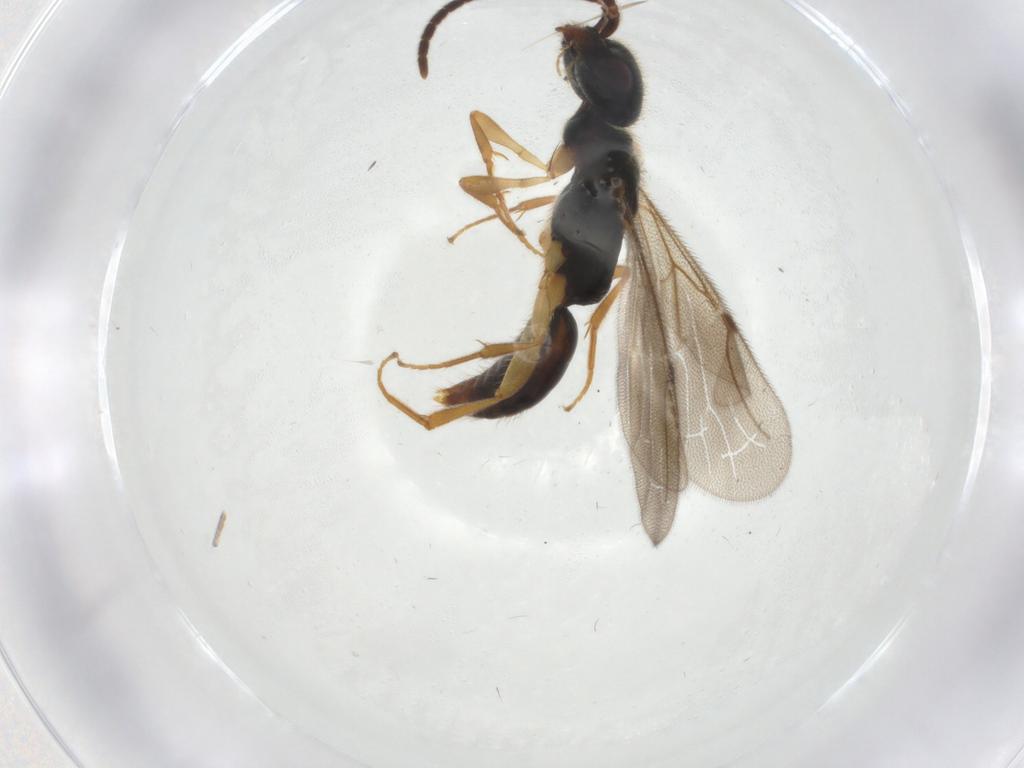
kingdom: Animalia
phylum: Arthropoda
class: Insecta
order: Hymenoptera
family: Bethylidae
